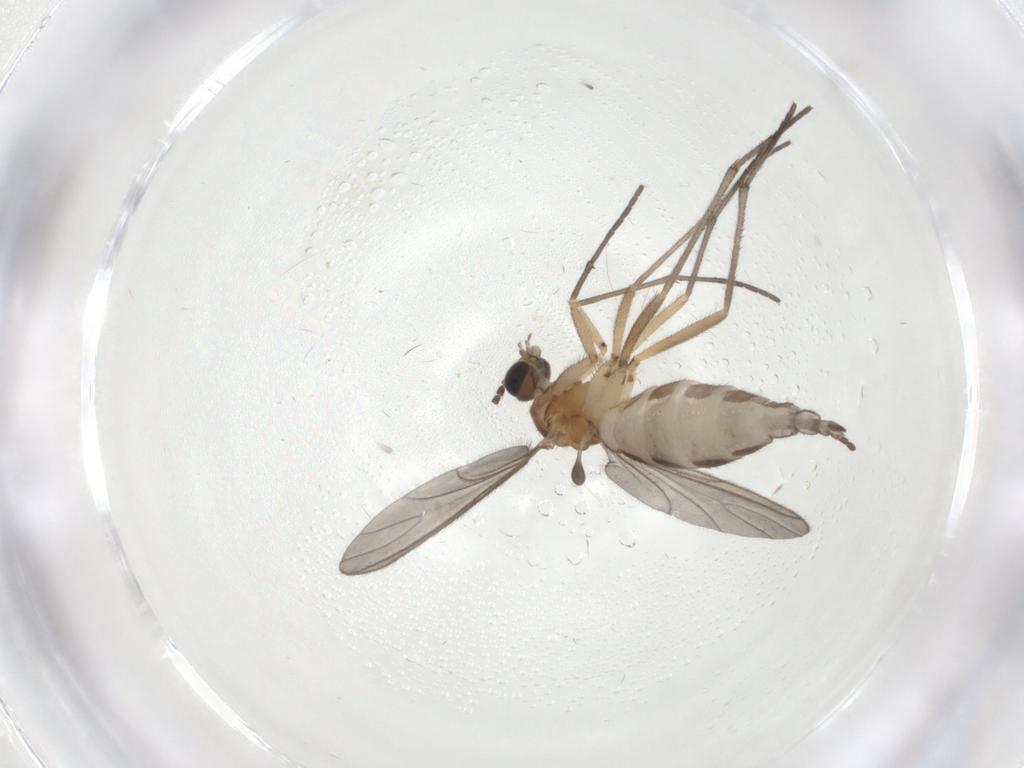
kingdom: Animalia
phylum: Arthropoda
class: Insecta
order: Diptera
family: Sciaridae
